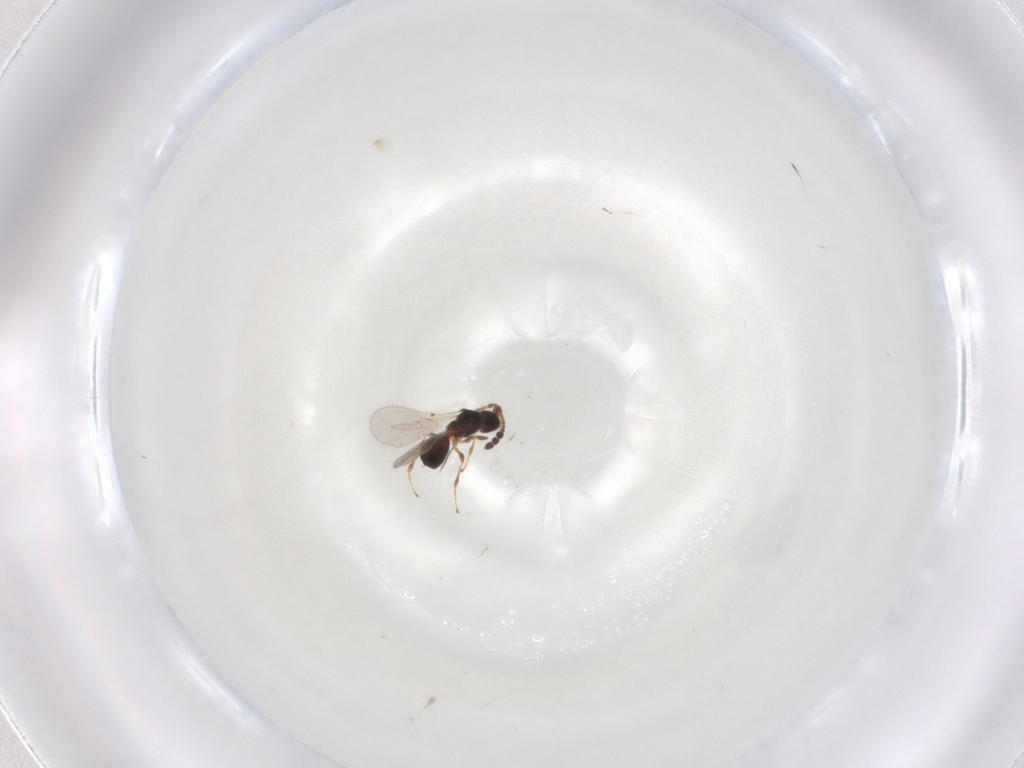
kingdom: Animalia
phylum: Arthropoda
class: Insecta
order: Hymenoptera
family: Diapriidae
